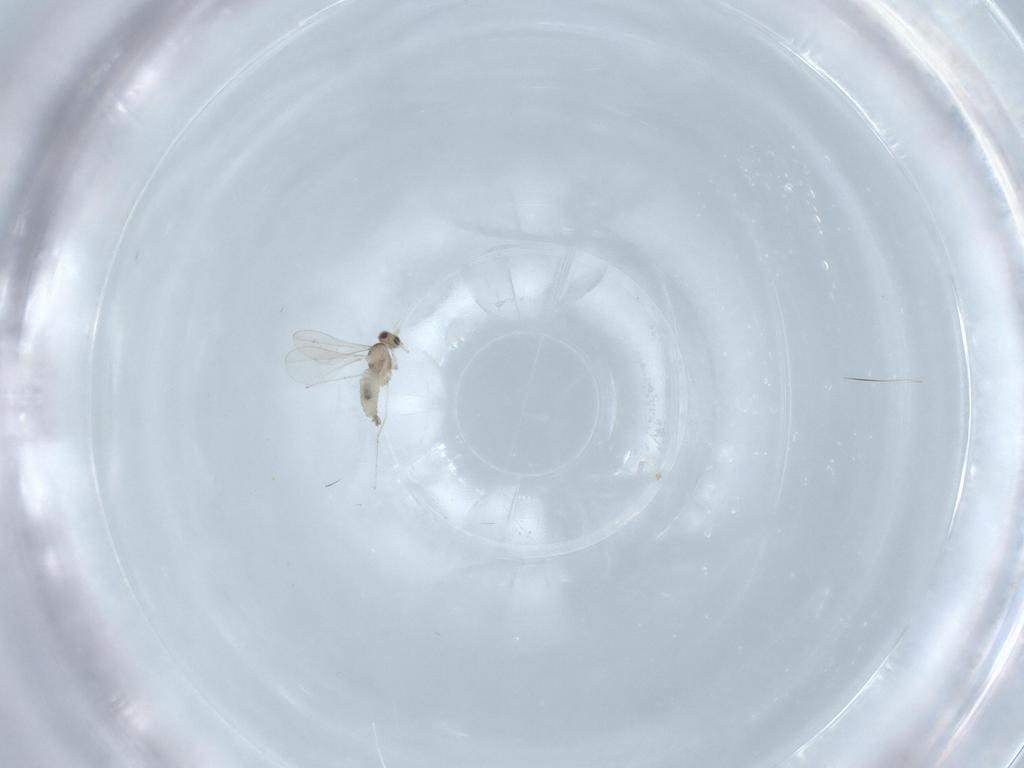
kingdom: Animalia
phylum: Arthropoda
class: Insecta
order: Diptera
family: Cecidomyiidae
